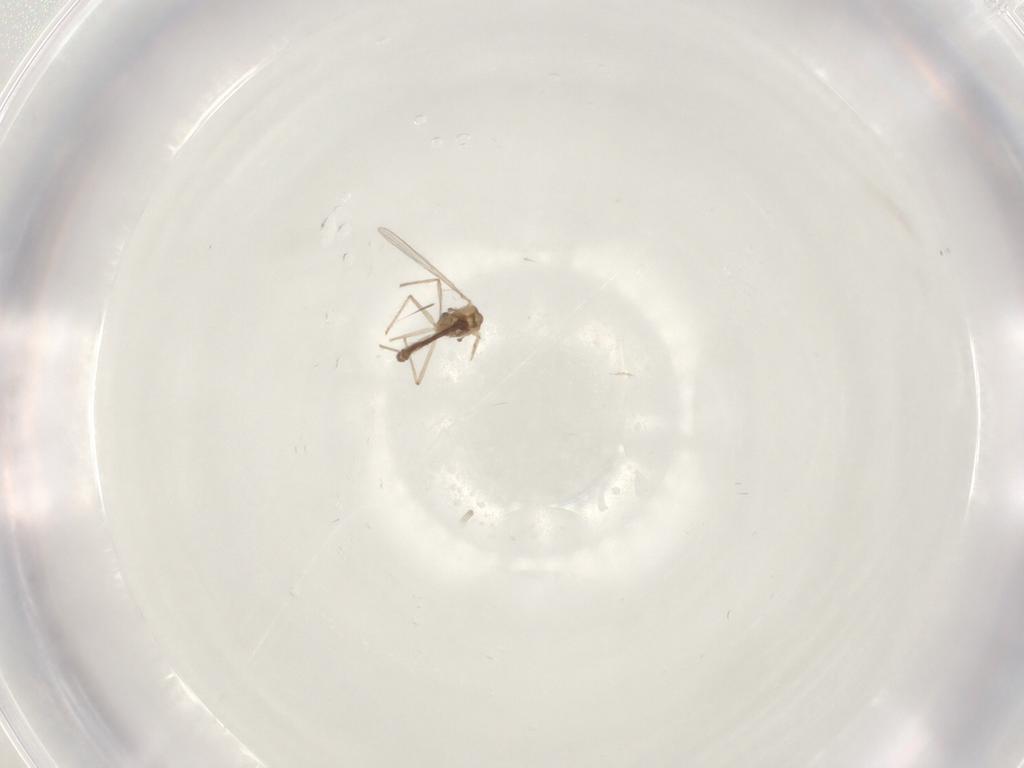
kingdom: Animalia
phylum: Arthropoda
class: Insecta
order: Diptera
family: Chironomidae
